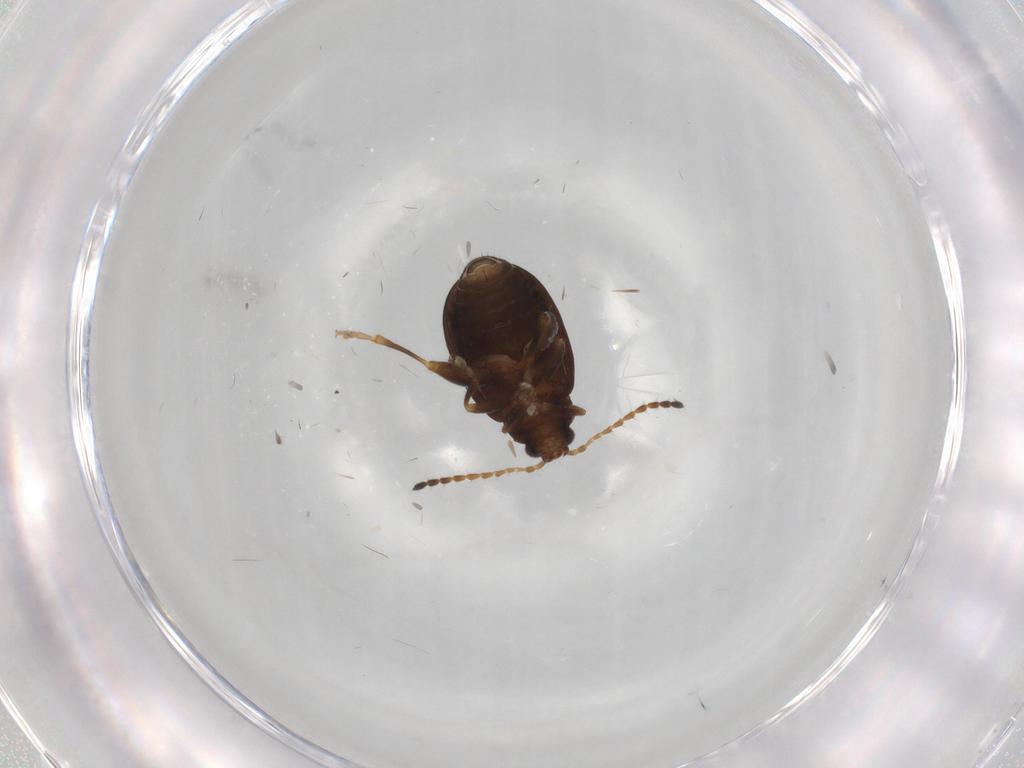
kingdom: Animalia
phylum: Arthropoda
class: Insecta
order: Coleoptera
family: Chrysomelidae
